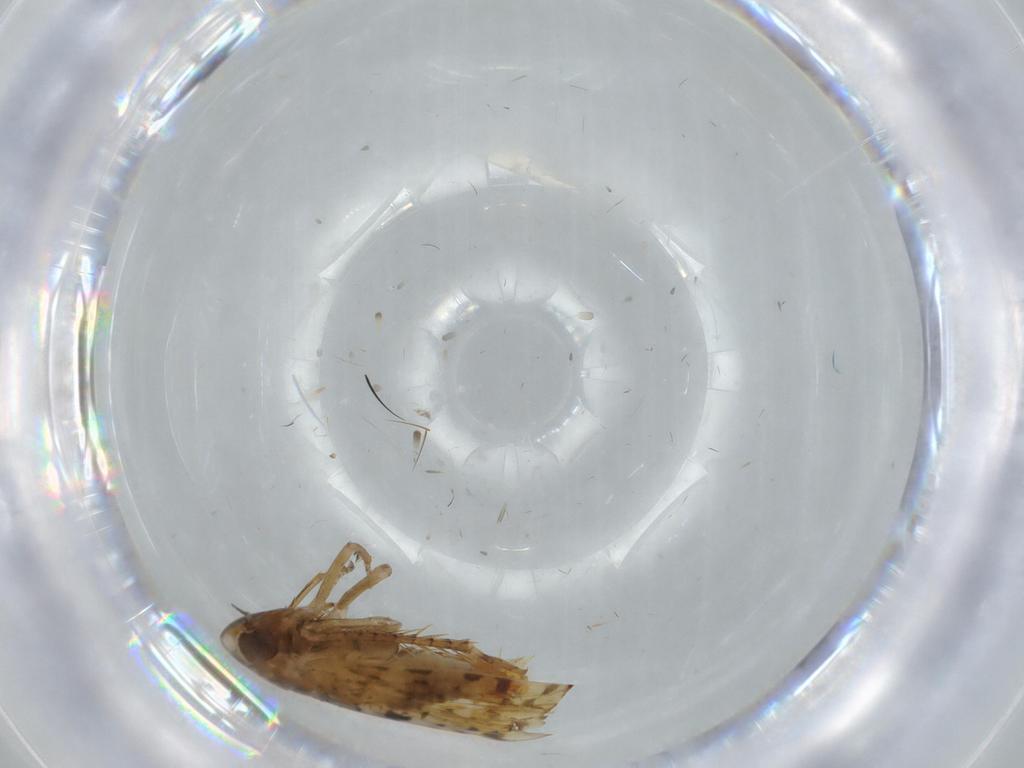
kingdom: Animalia
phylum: Arthropoda
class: Insecta
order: Hemiptera
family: Cicadellidae
